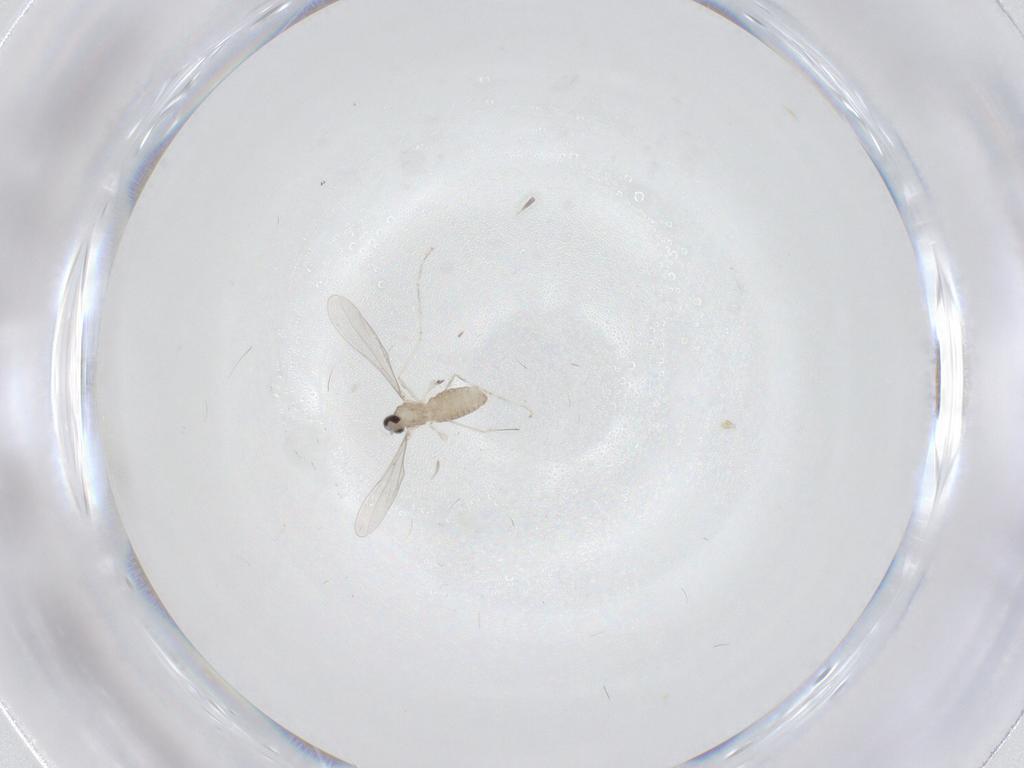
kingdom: Animalia
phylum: Arthropoda
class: Insecta
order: Diptera
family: Cecidomyiidae
